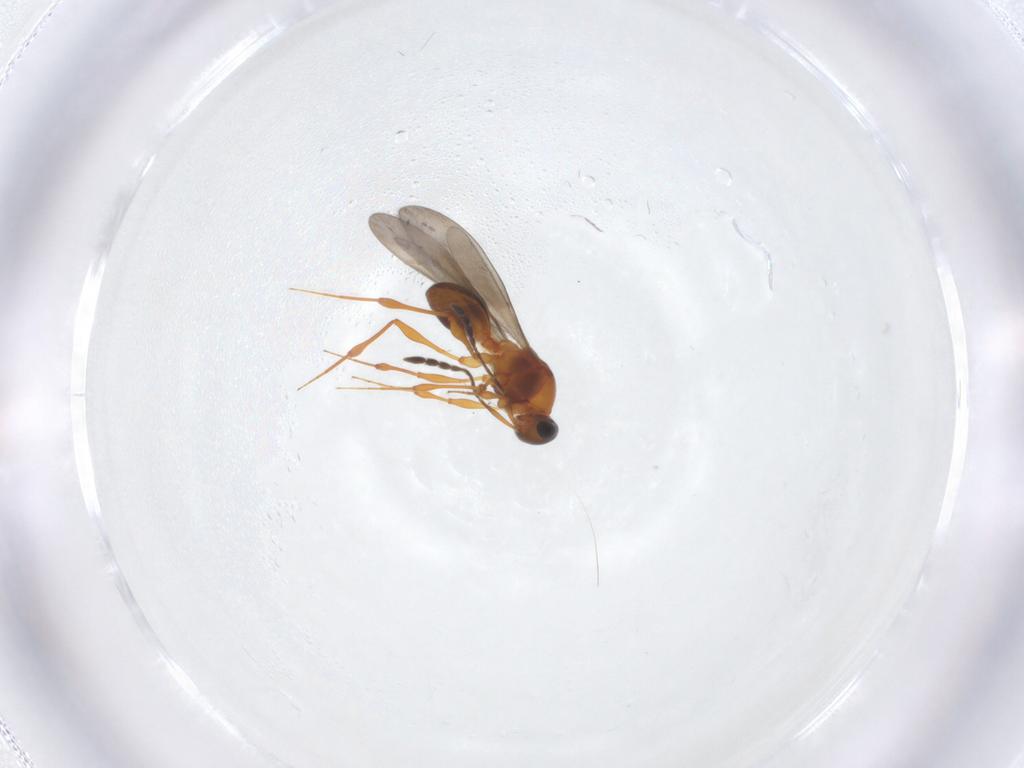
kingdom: Animalia
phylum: Arthropoda
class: Insecta
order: Hymenoptera
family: Platygastridae
